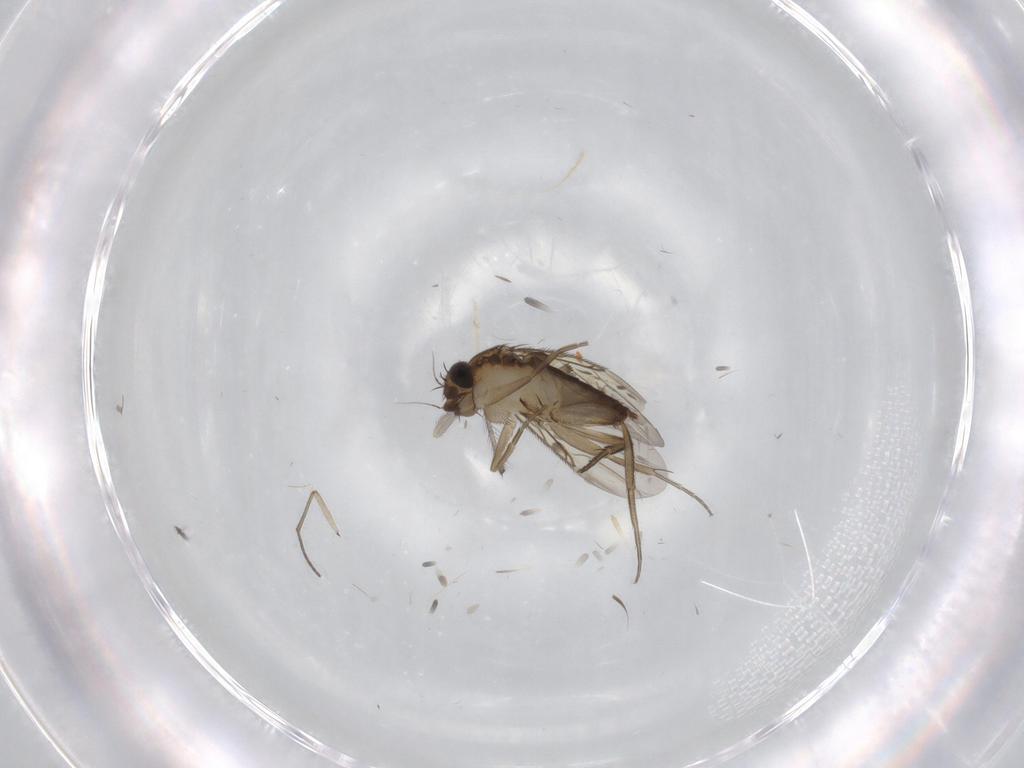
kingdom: Animalia
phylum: Arthropoda
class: Insecta
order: Diptera
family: Phoridae
